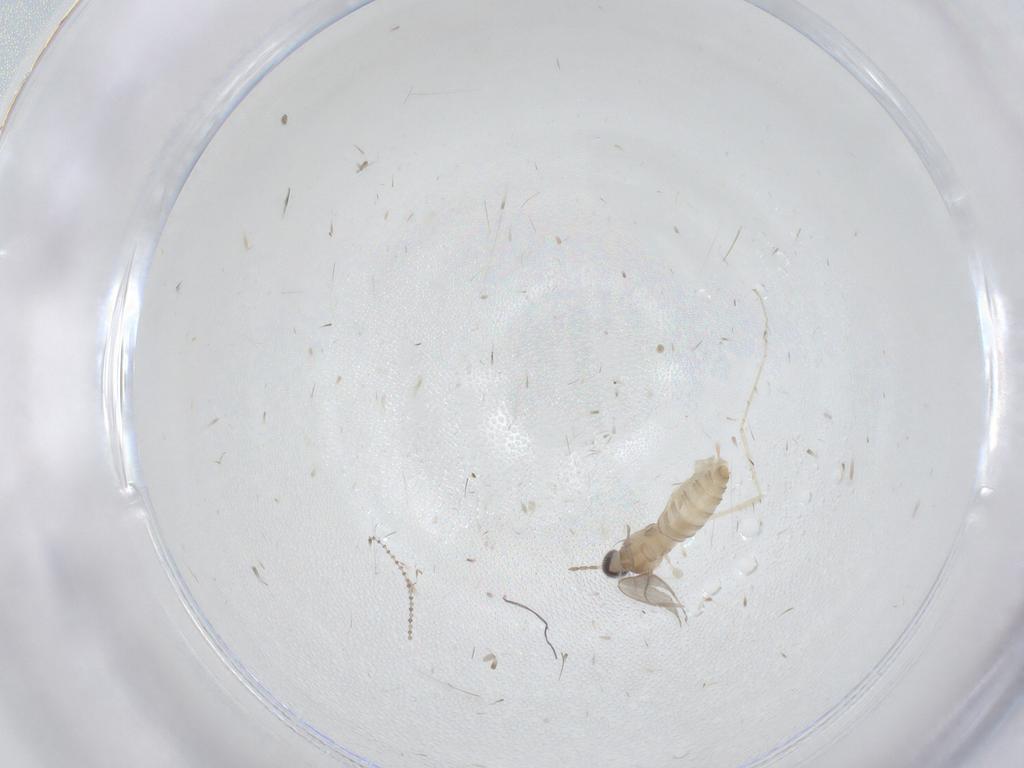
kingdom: Animalia
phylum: Arthropoda
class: Insecta
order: Diptera
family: Cecidomyiidae
